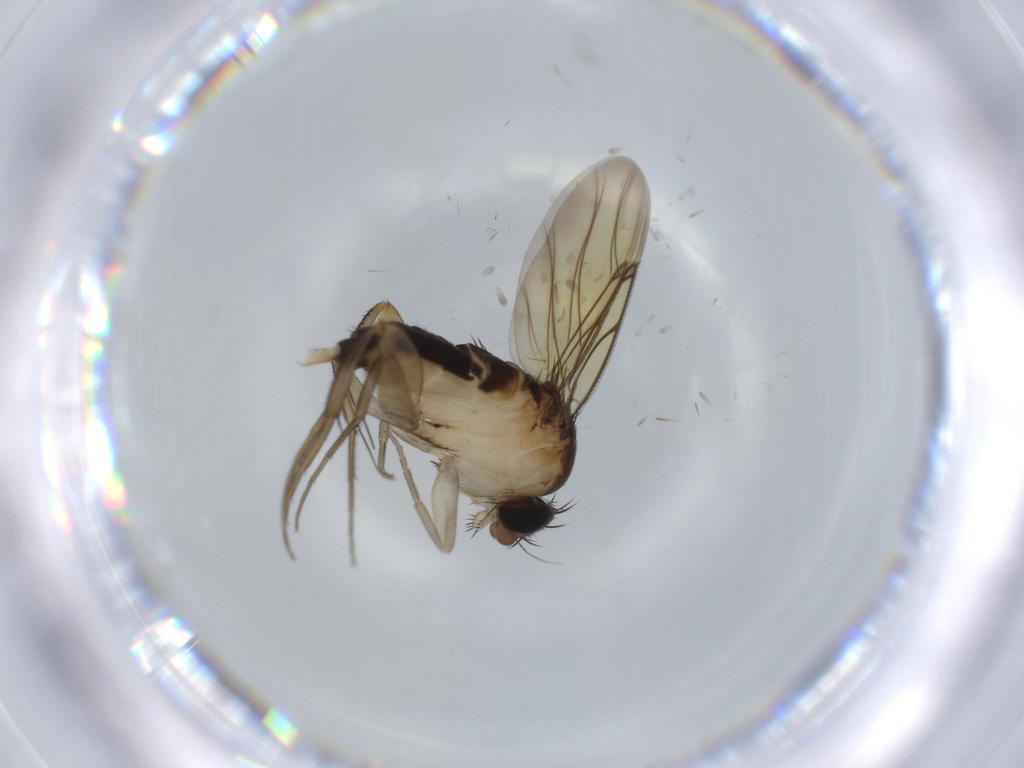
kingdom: Animalia
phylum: Arthropoda
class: Insecta
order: Diptera
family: Phoridae
